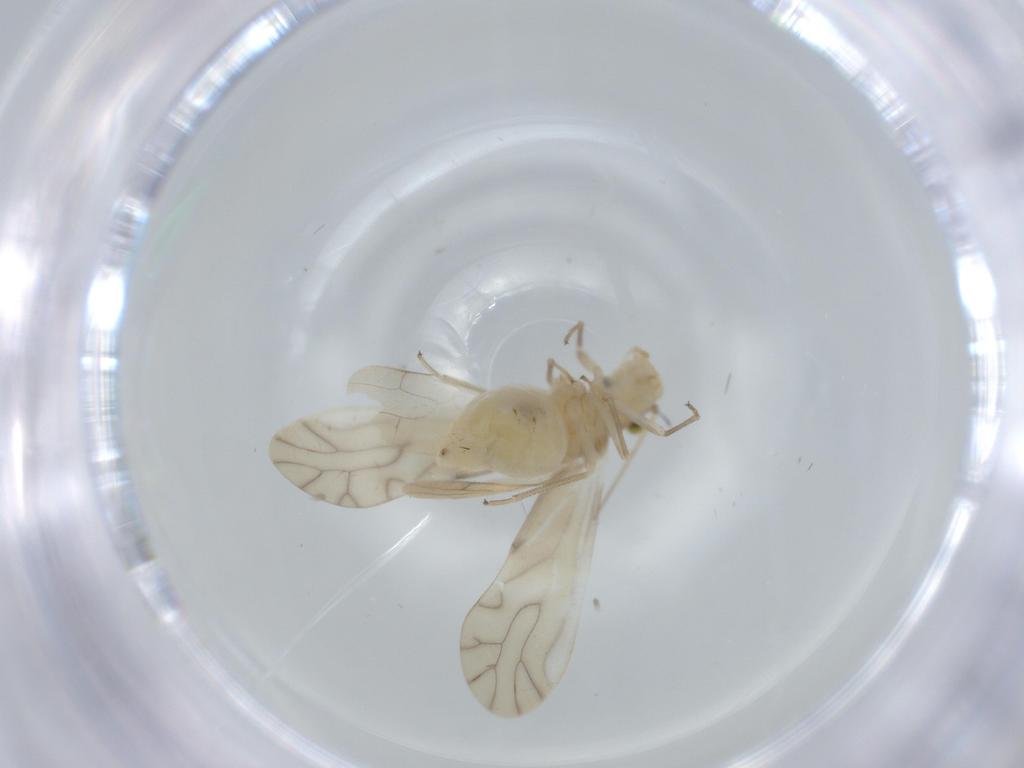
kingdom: Animalia
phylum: Arthropoda
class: Insecta
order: Psocodea
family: Caeciliusidae
